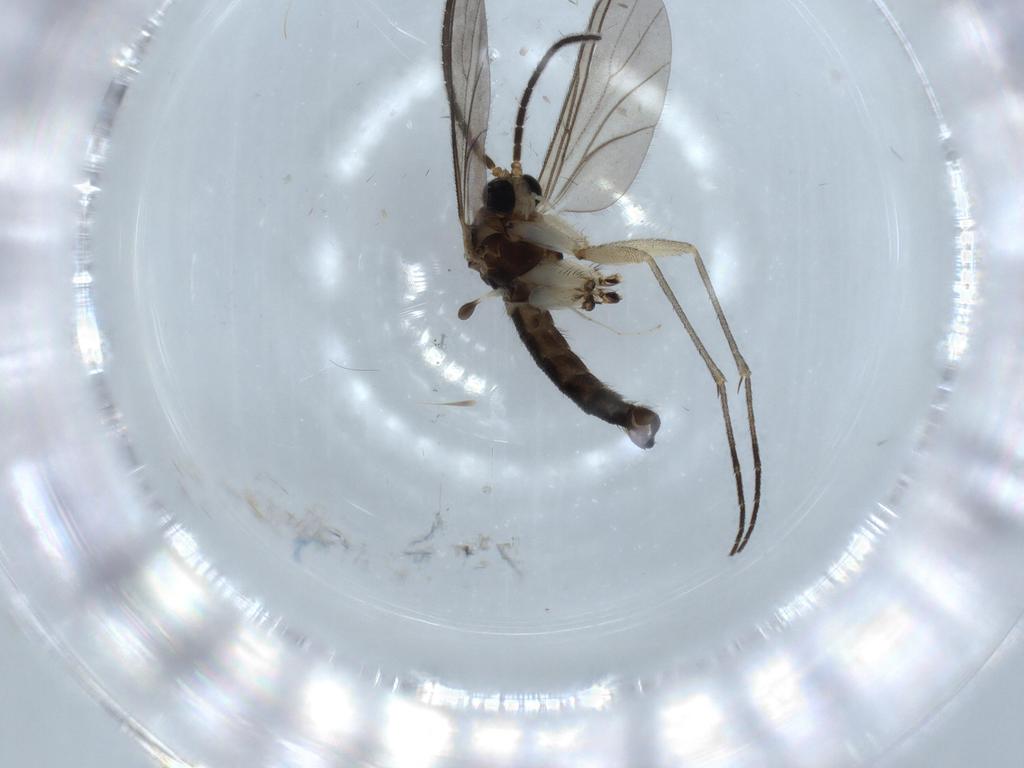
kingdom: Animalia
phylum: Arthropoda
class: Insecta
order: Diptera
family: Sciaridae
